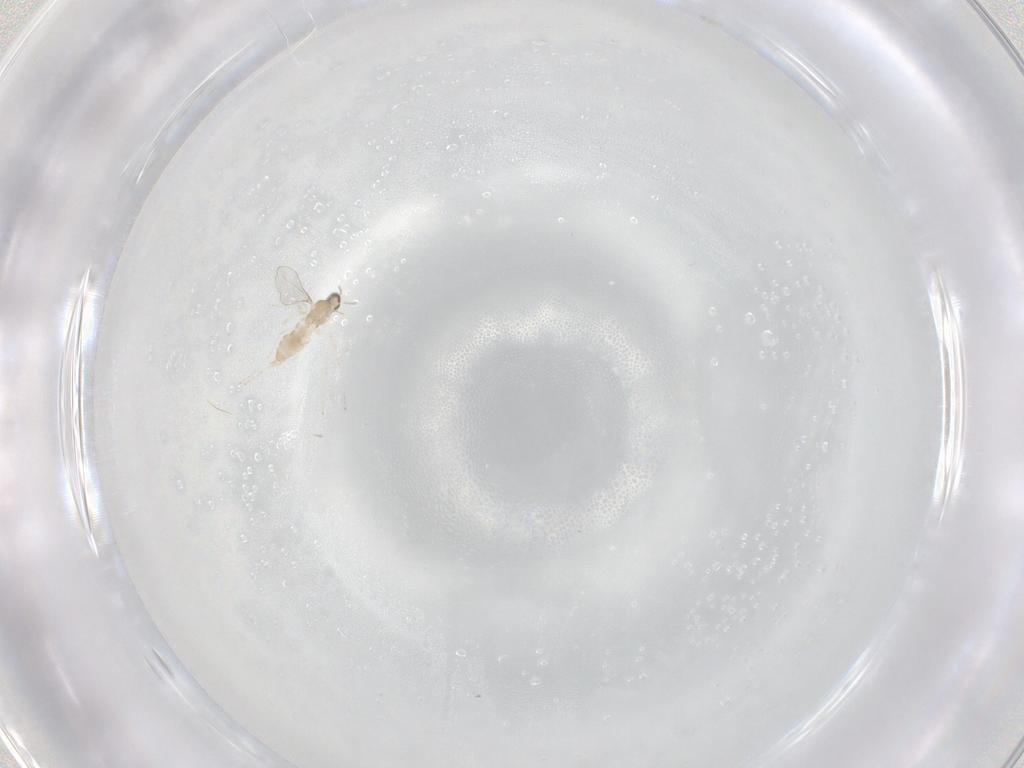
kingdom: Animalia
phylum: Arthropoda
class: Insecta
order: Diptera
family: Cecidomyiidae
